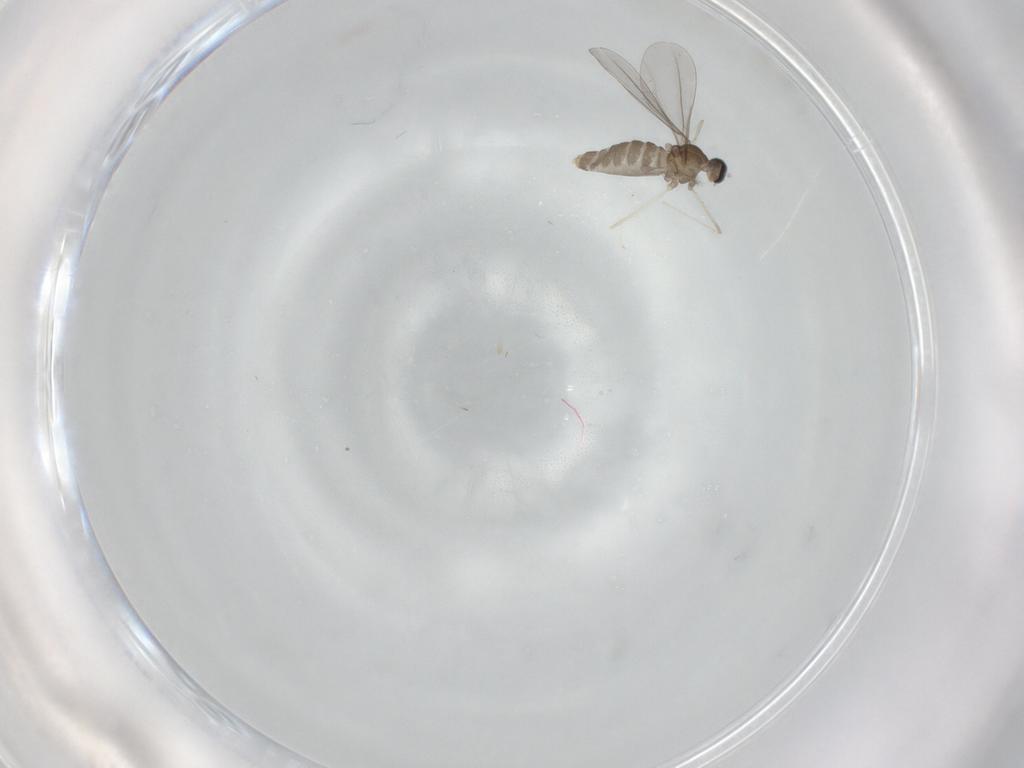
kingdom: Animalia
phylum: Arthropoda
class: Insecta
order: Diptera
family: Cecidomyiidae
